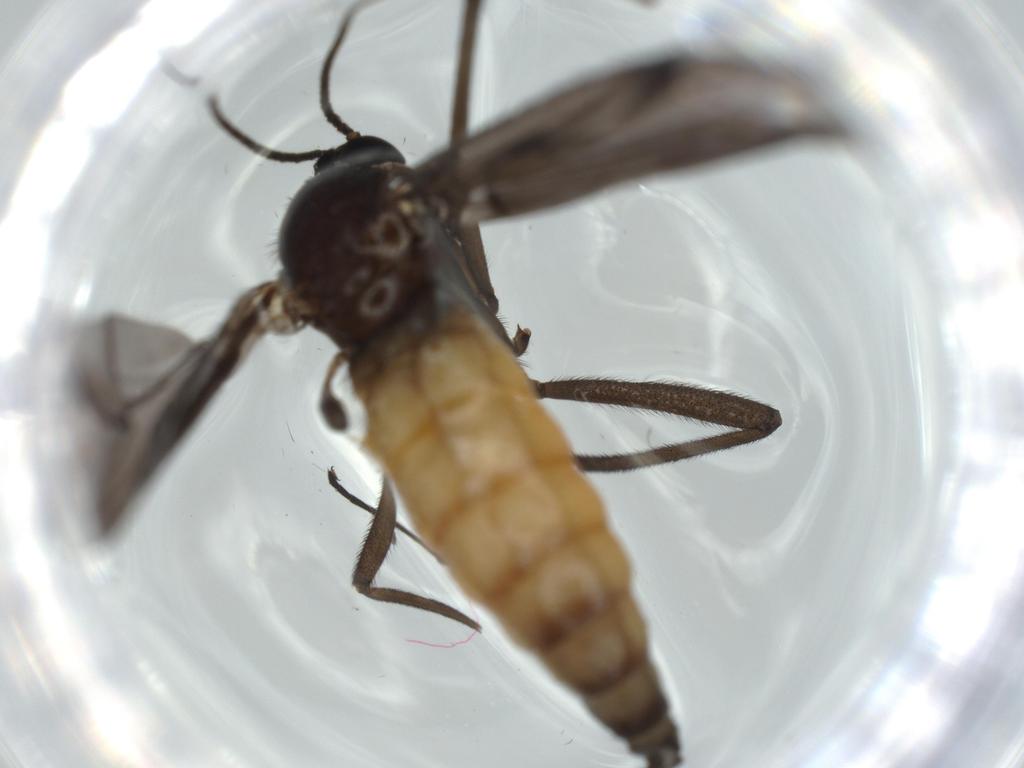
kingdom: Animalia
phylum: Arthropoda
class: Insecta
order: Diptera
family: Chironomidae
